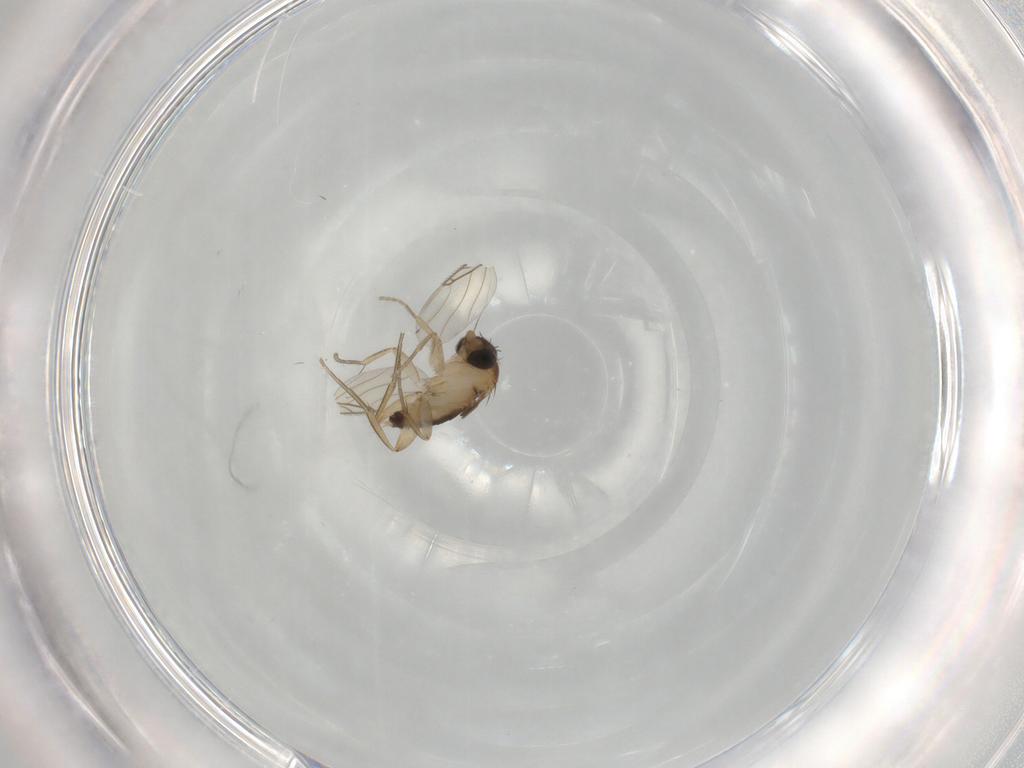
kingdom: Animalia
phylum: Arthropoda
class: Insecta
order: Diptera
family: Phoridae
